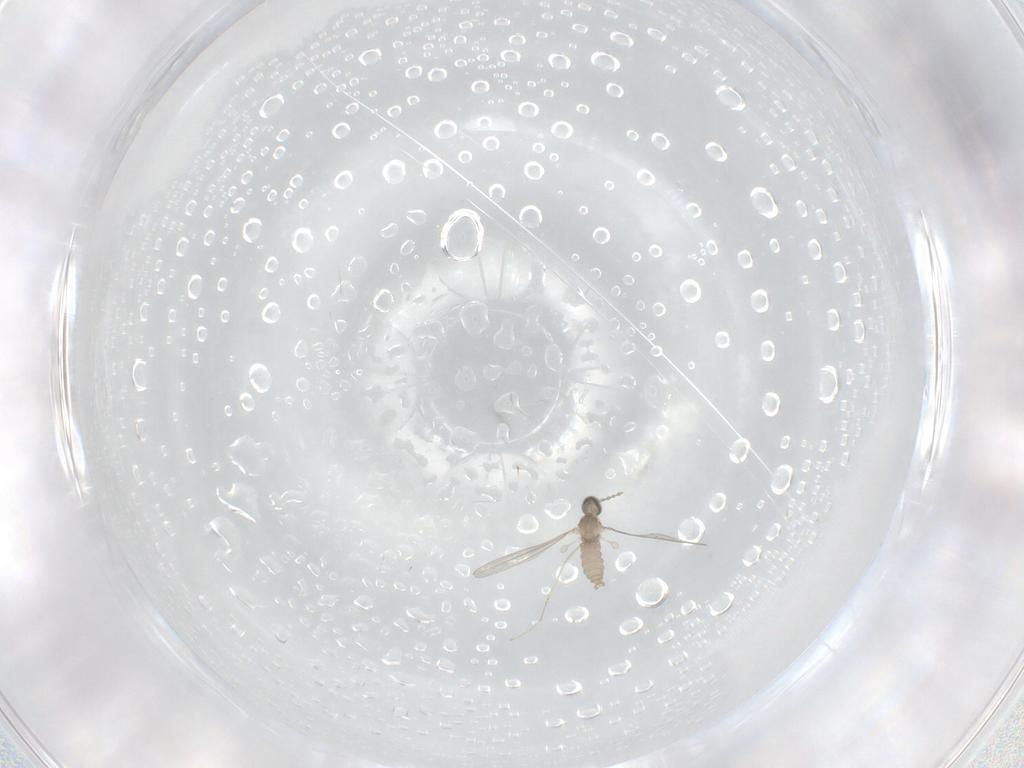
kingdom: Animalia
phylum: Arthropoda
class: Insecta
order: Diptera
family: Cecidomyiidae
